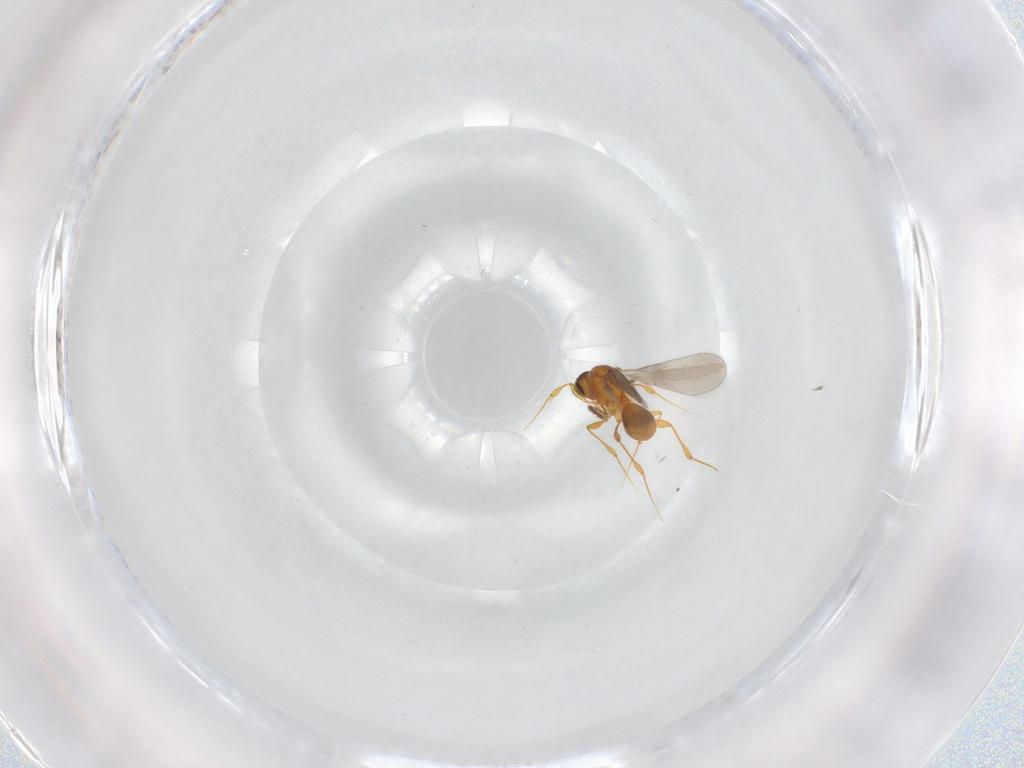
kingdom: Animalia
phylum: Arthropoda
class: Insecta
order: Hymenoptera
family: Platygastridae
